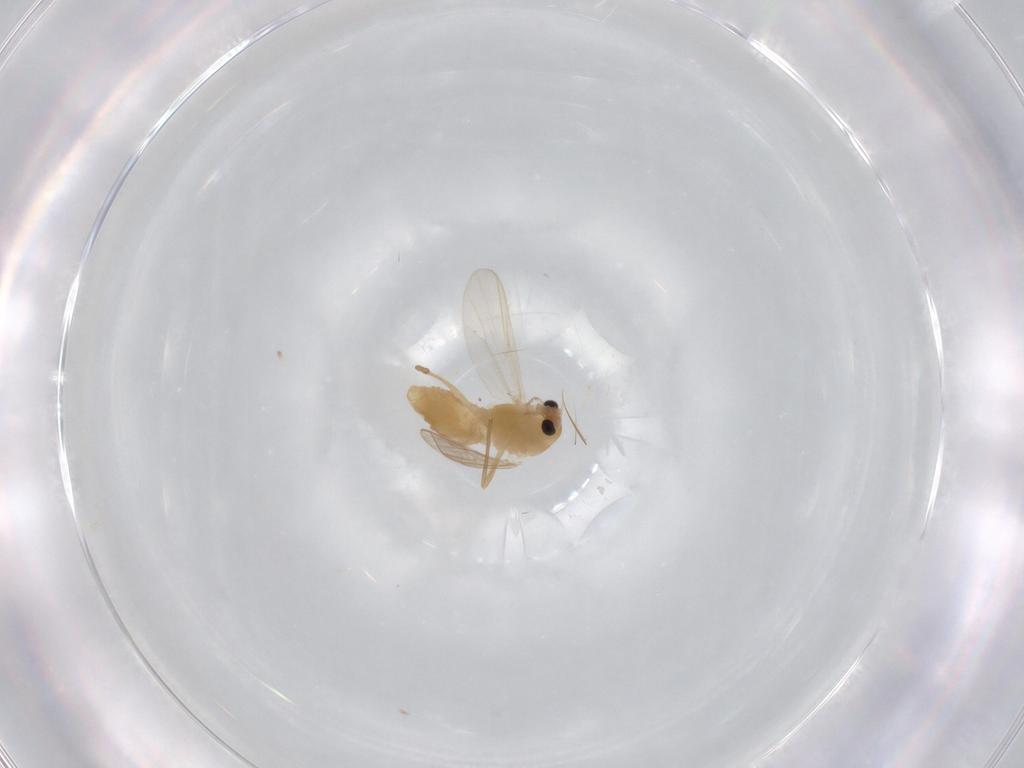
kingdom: Animalia
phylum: Arthropoda
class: Insecta
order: Diptera
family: Chironomidae
